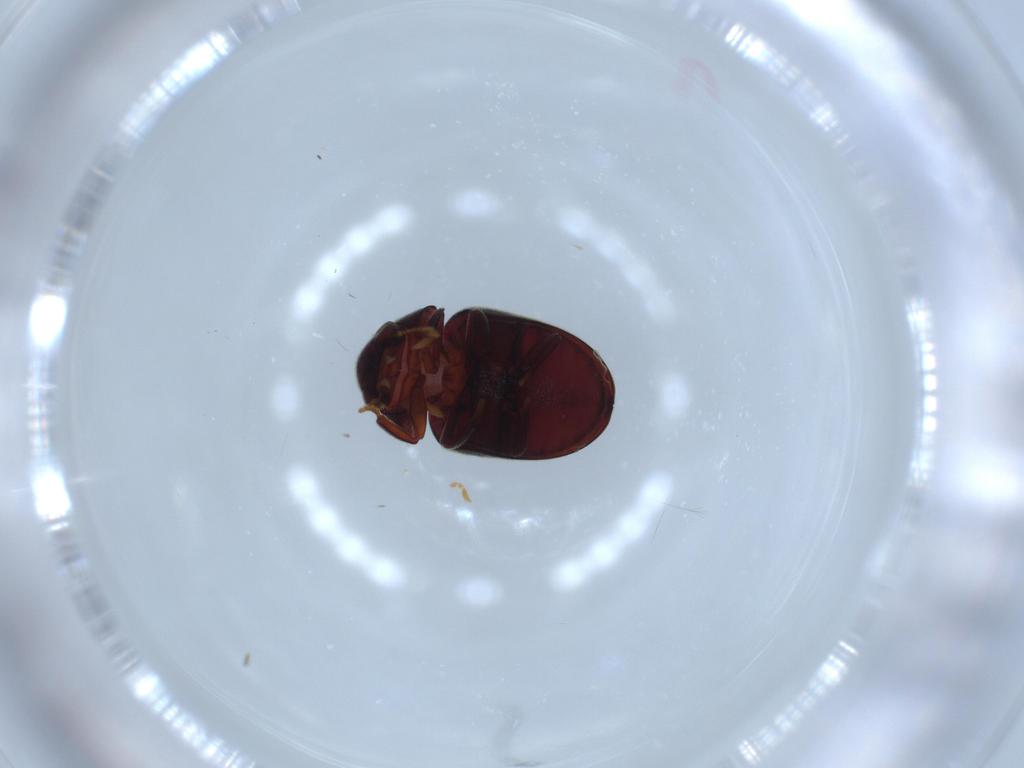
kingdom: Animalia
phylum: Arthropoda
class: Insecta
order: Coleoptera
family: Ptinidae
